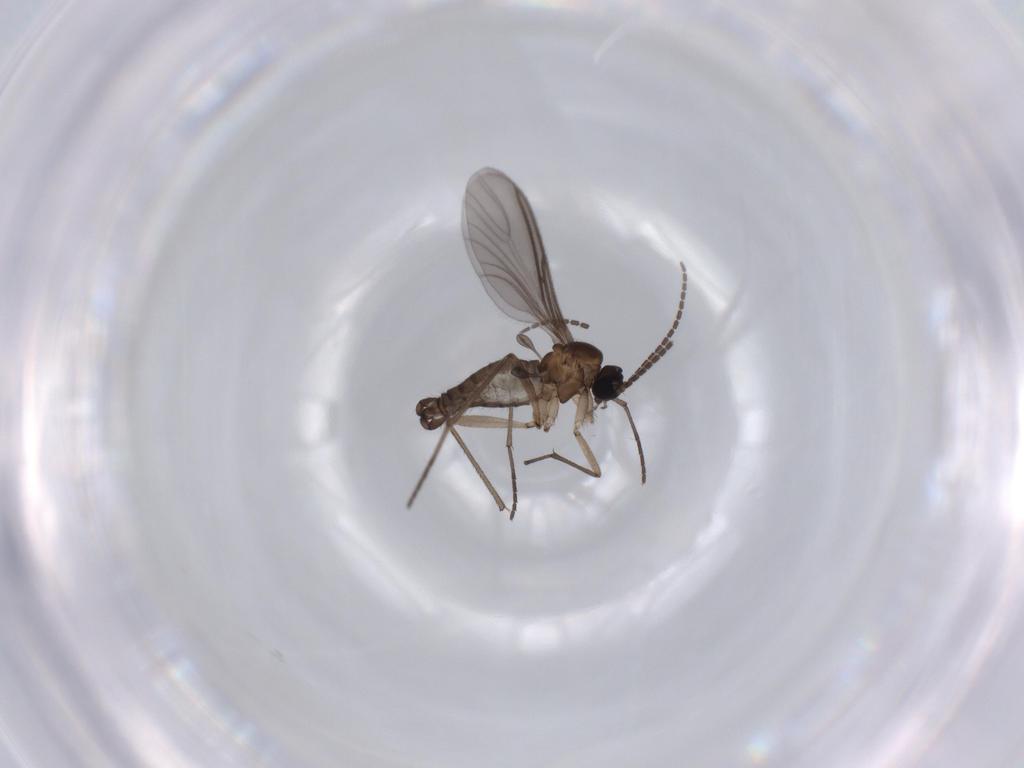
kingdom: Animalia
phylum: Arthropoda
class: Insecta
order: Diptera
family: Sciaridae
